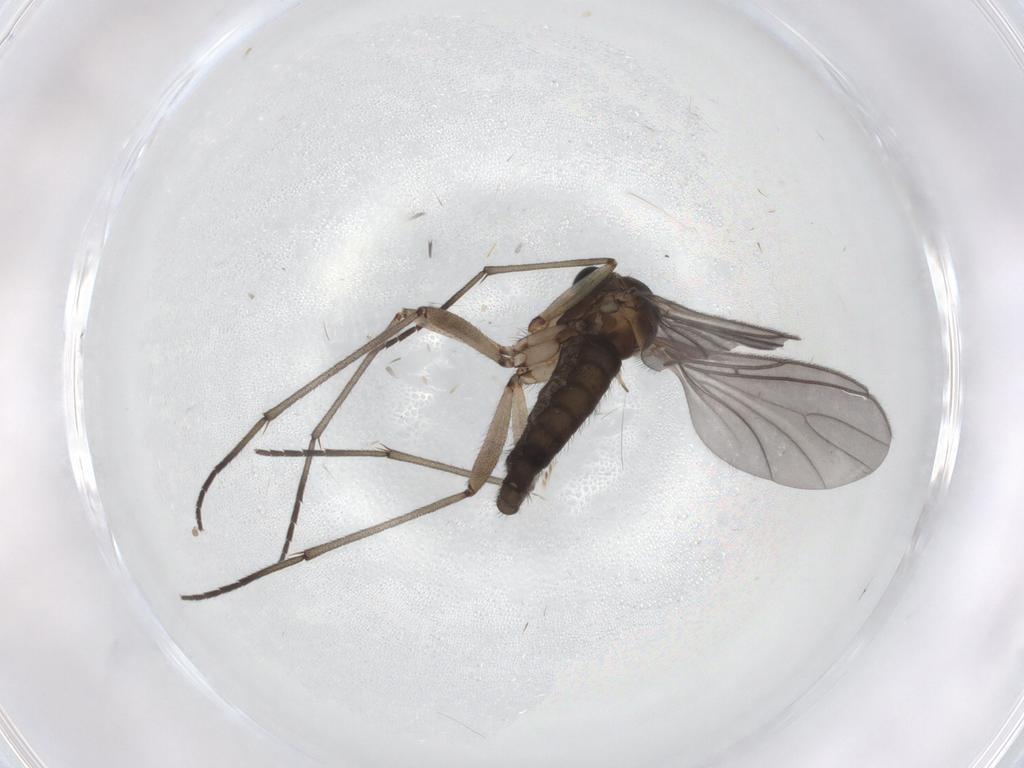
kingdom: Animalia
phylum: Arthropoda
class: Insecta
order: Diptera
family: Sciaridae
